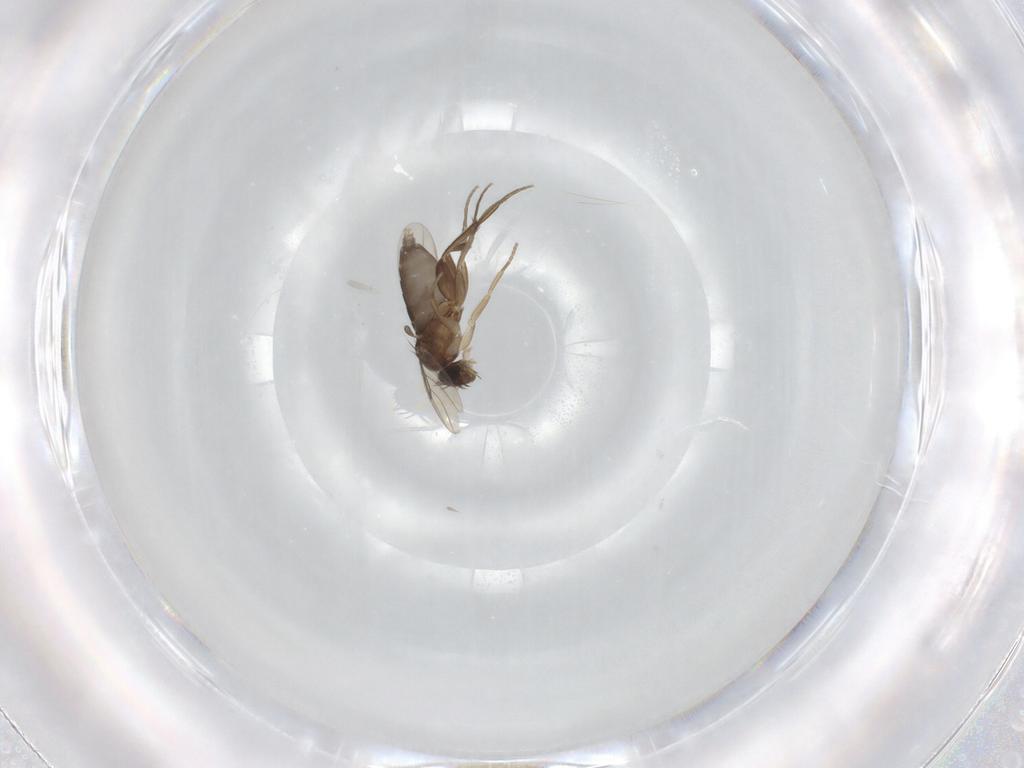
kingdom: Animalia
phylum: Arthropoda
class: Insecta
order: Diptera
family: Phoridae
